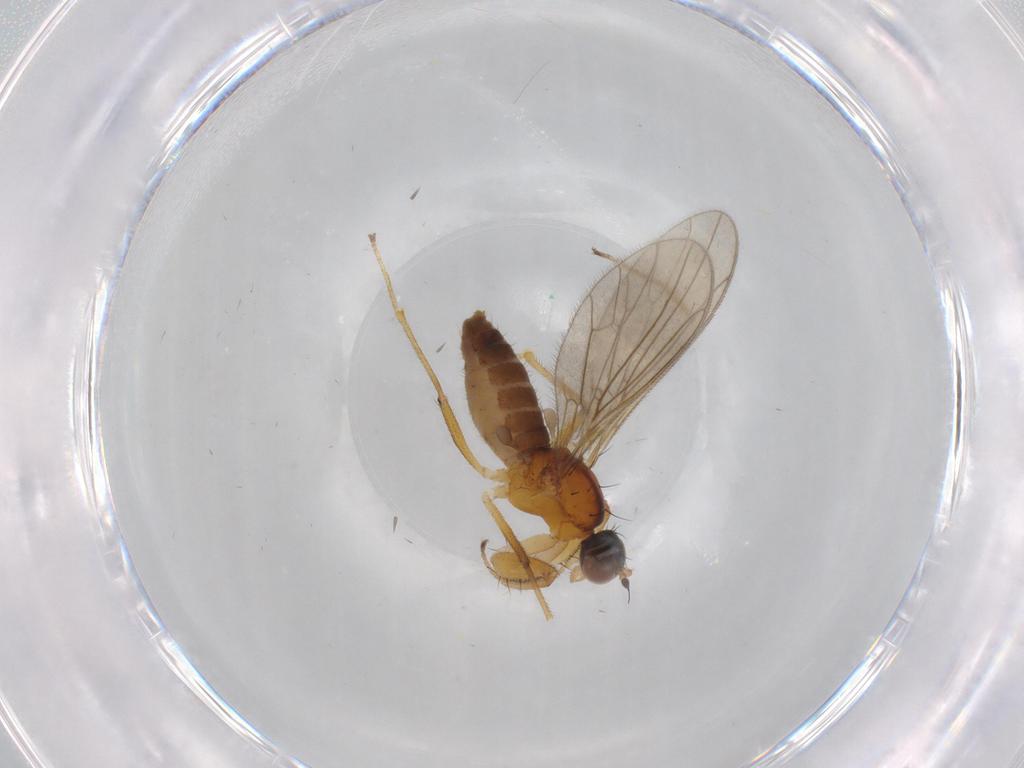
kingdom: Animalia
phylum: Arthropoda
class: Insecta
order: Diptera
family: Empididae
